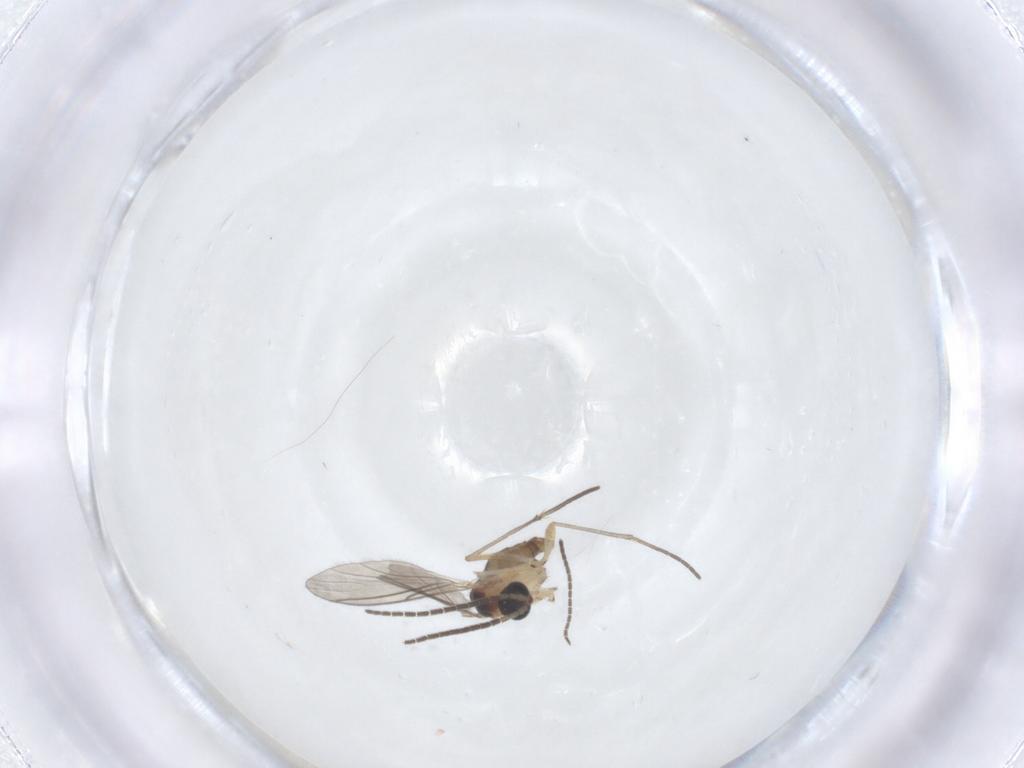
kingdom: Animalia
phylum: Arthropoda
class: Insecta
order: Diptera
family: Sciaridae
